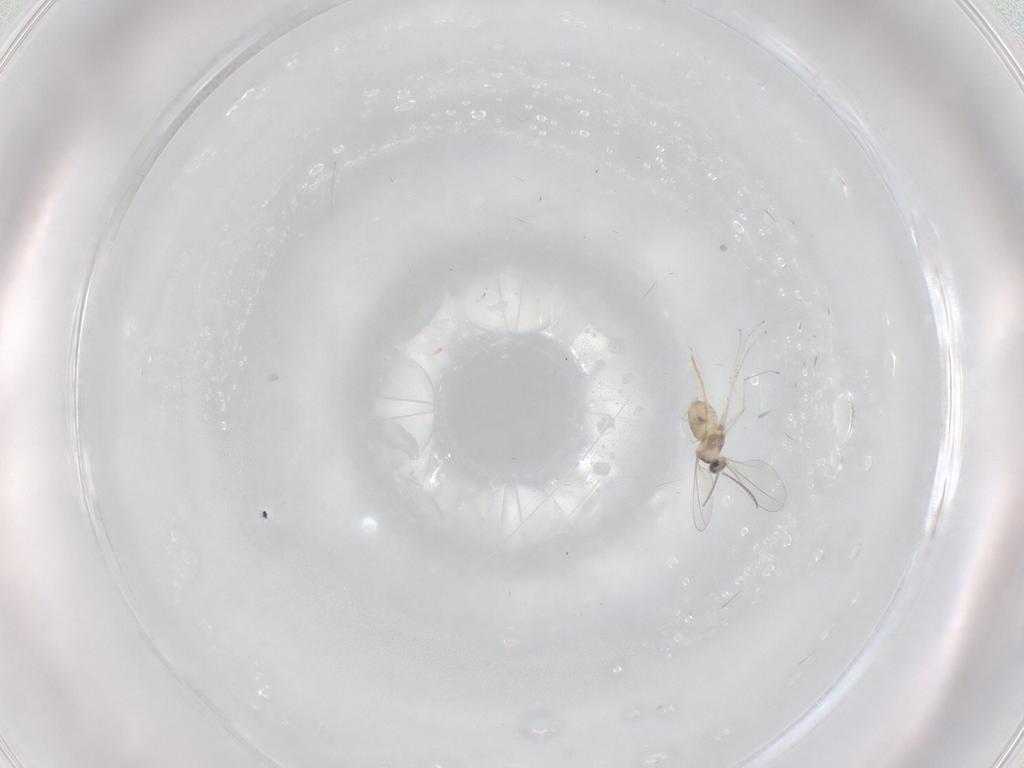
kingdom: Animalia
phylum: Arthropoda
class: Insecta
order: Diptera
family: Phoridae
